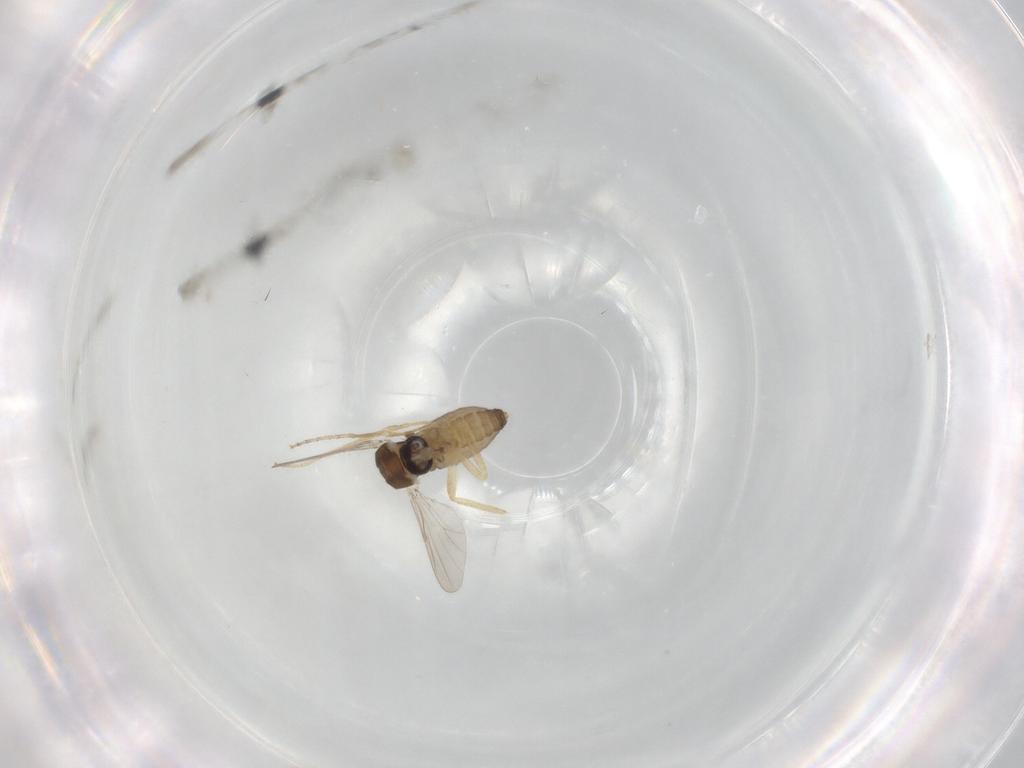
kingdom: Animalia
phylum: Arthropoda
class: Insecta
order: Diptera
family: Ceratopogonidae
